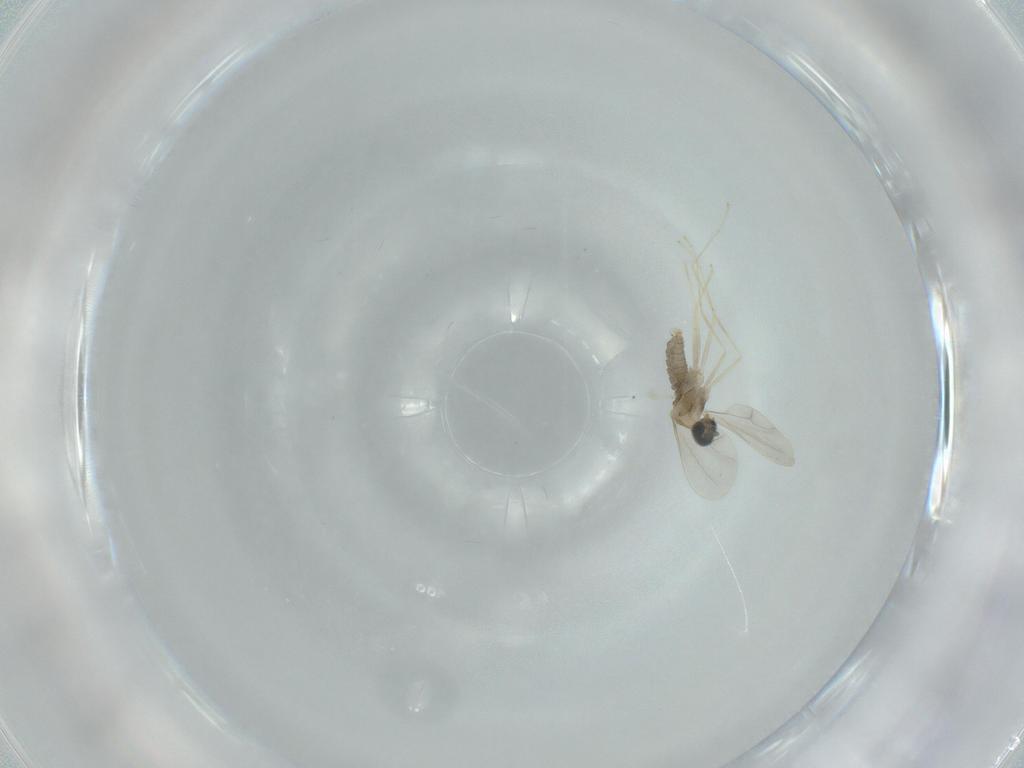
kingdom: Animalia
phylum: Arthropoda
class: Insecta
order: Diptera
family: Cecidomyiidae
